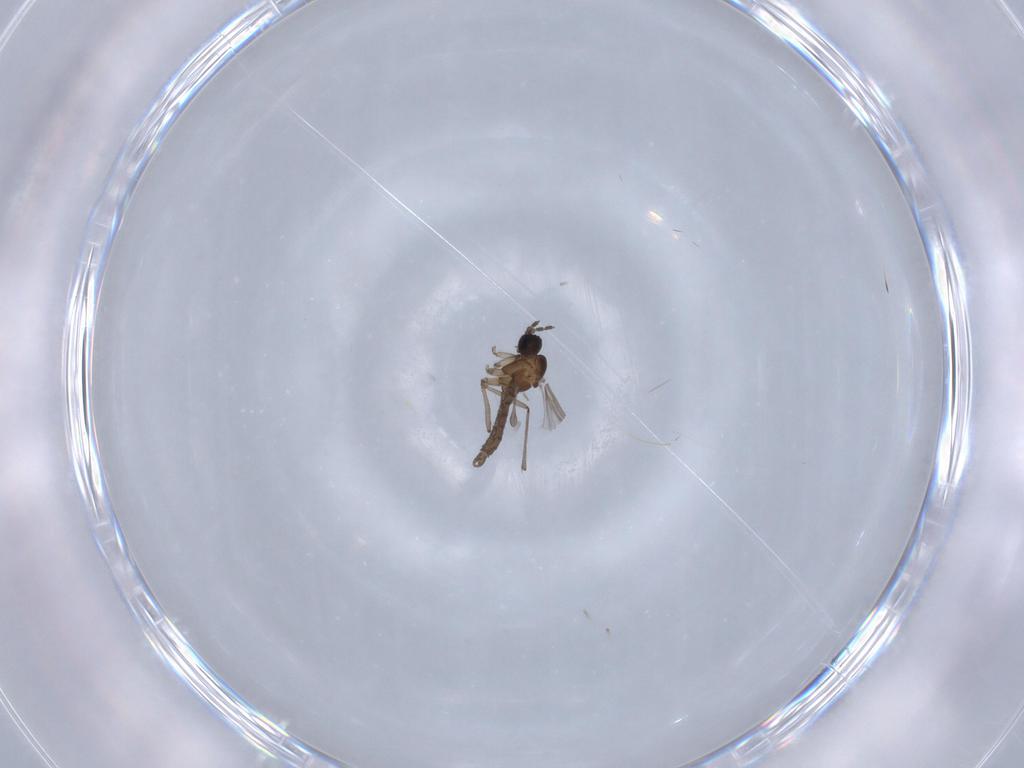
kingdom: Animalia
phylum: Arthropoda
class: Insecta
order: Diptera
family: Sciaridae
